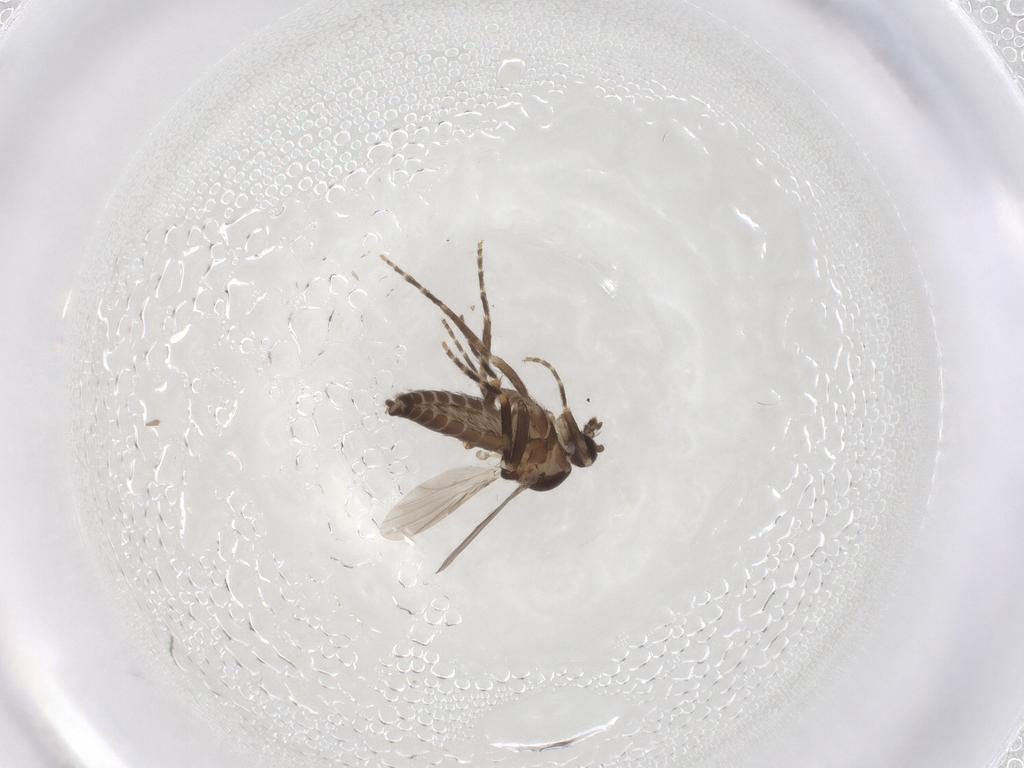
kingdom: Animalia
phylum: Arthropoda
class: Insecta
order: Diptera
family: Ceratopogonidae
